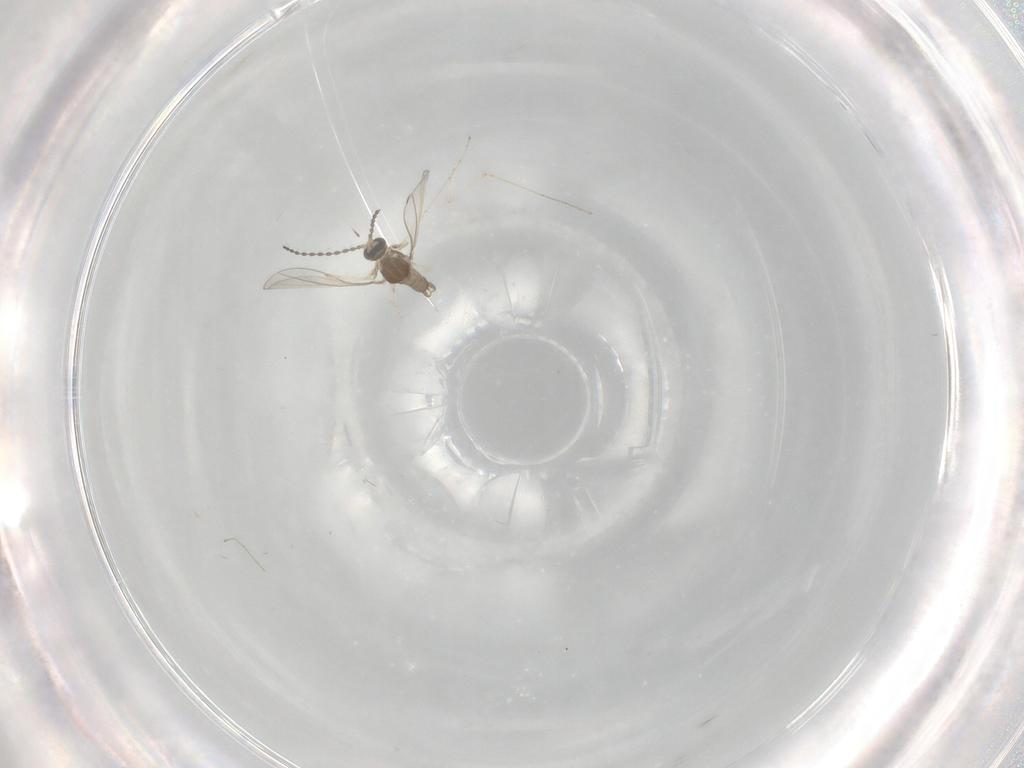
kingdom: Animalia
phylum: Arthropoda
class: Insecta
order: Diptera
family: Cecidomyiidae
